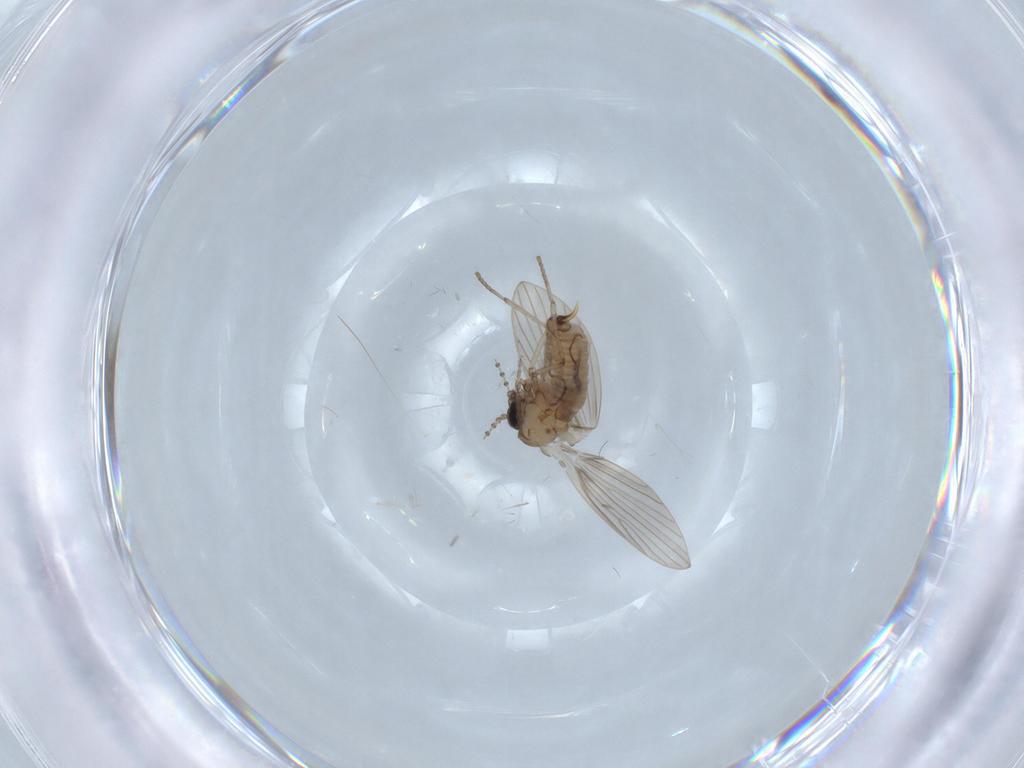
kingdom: Animalia
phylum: Arthropoda
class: Insecta
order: Diptera
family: Psychodidae
